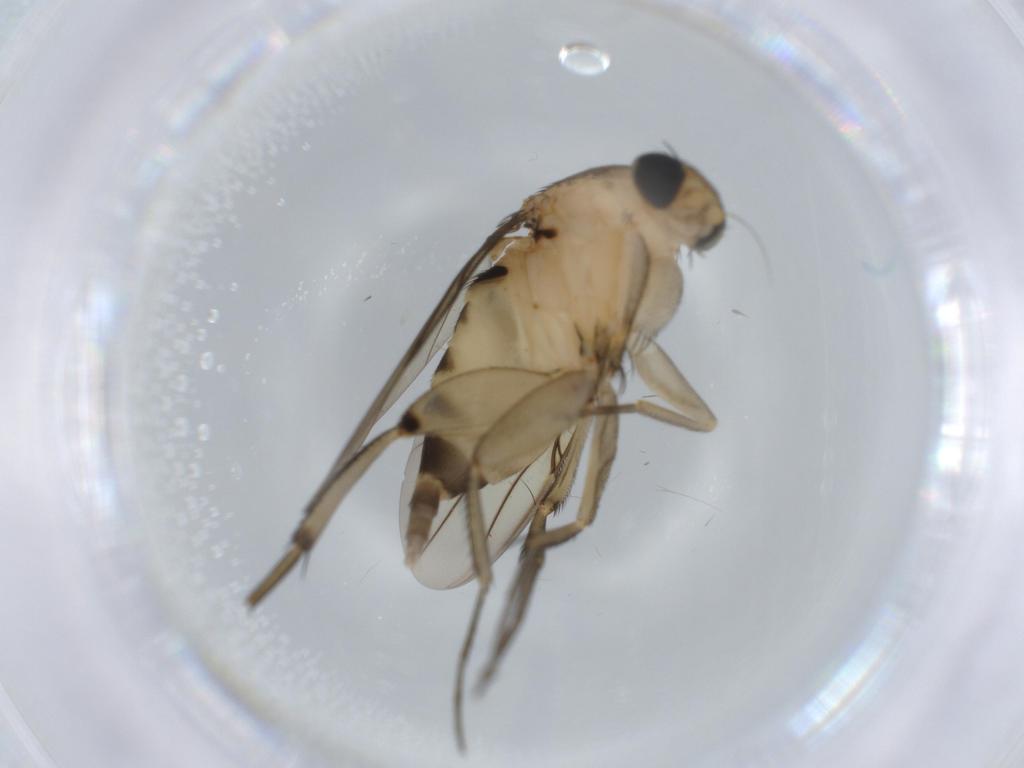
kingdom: Animalia
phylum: Arthropoda
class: Insecta
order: Diptera
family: Phoridae
